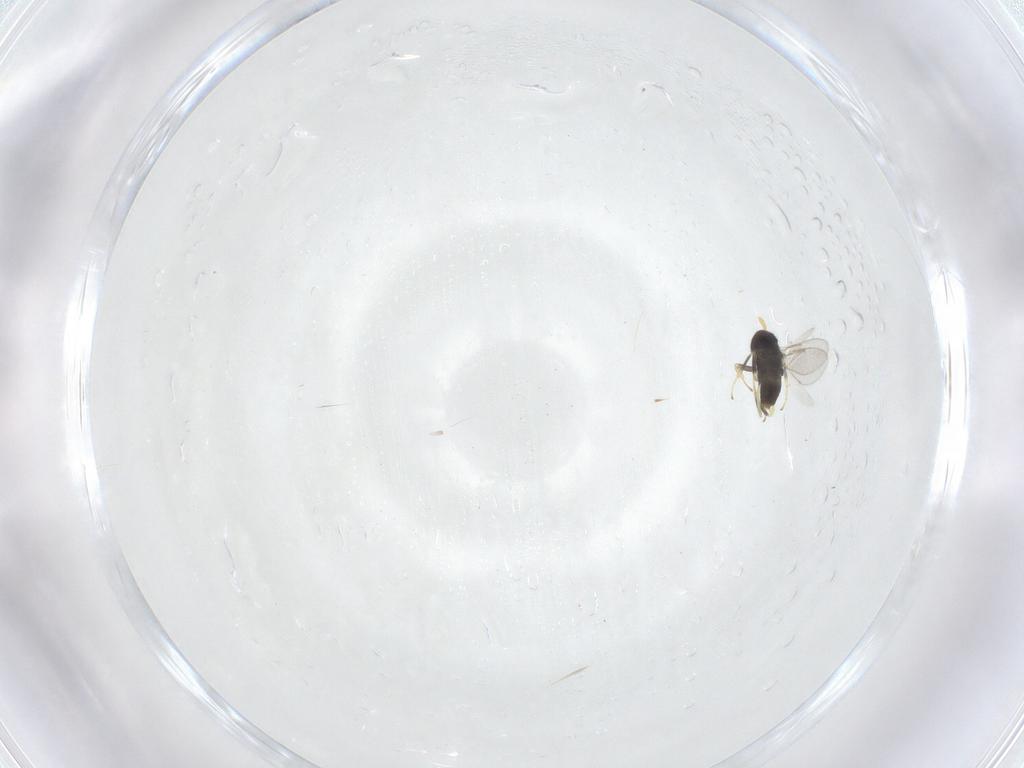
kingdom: Animalia
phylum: Arthropoda
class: Insecta
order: Hymenoptera
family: Aphelinidae
